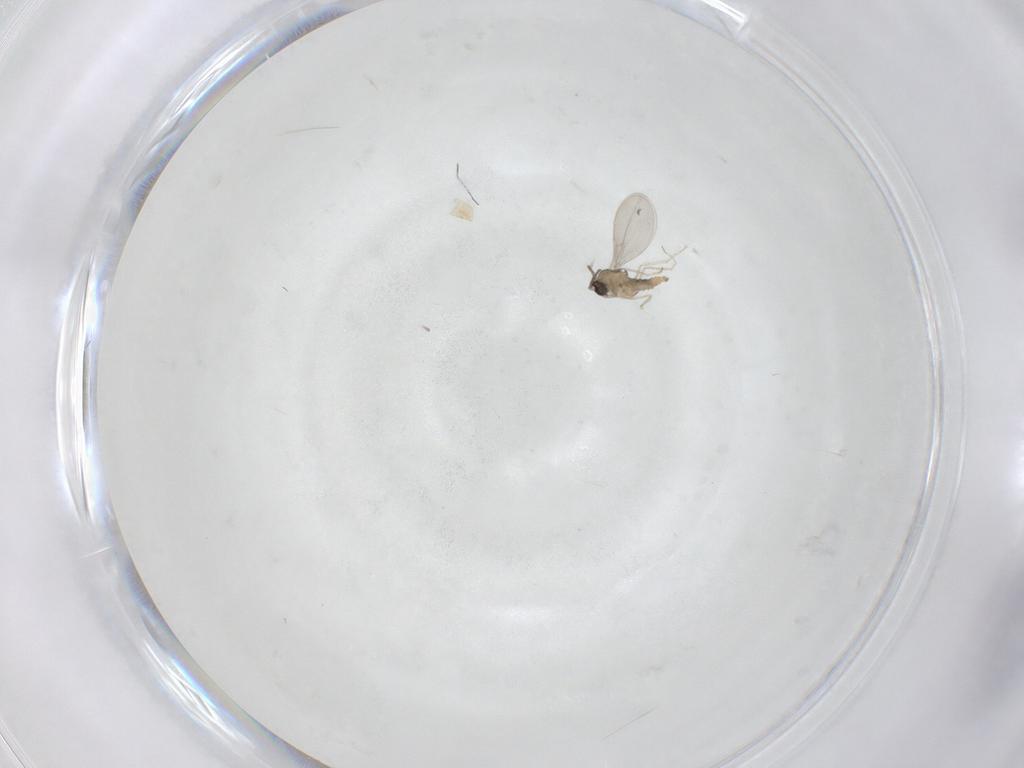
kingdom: Animalia
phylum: Arthropoda
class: Insecta
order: Diptera
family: Cecidomyiidae
